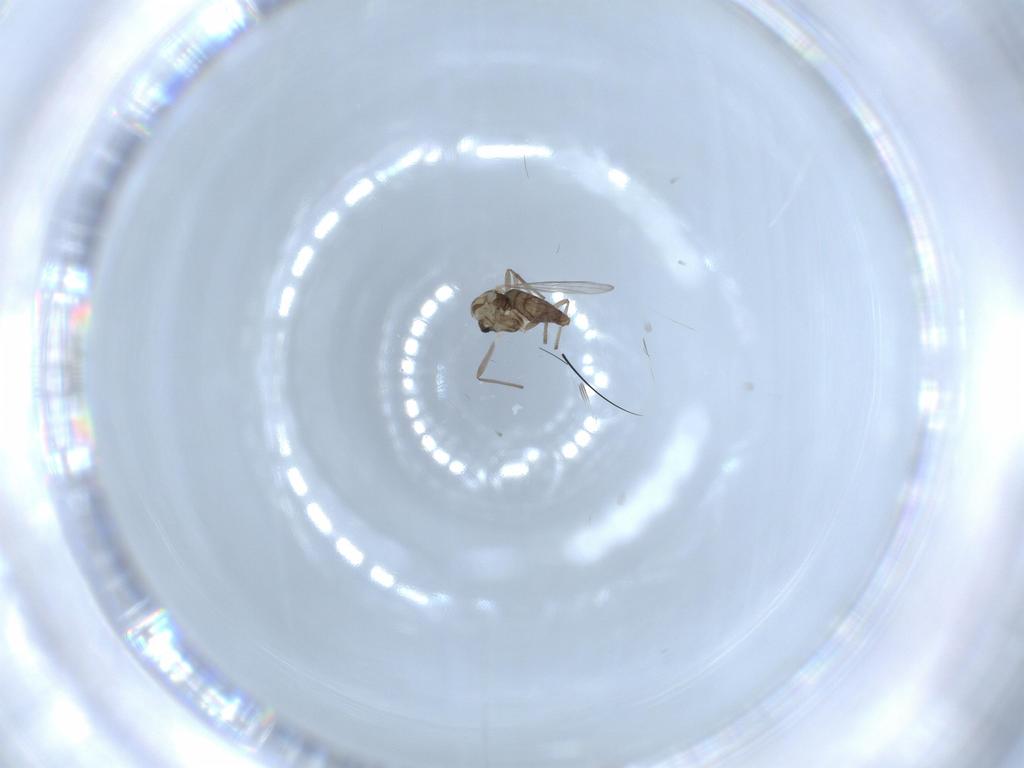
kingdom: Animalia
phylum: Arthropoda
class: Insecta
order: Diptera
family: Chironomidae
